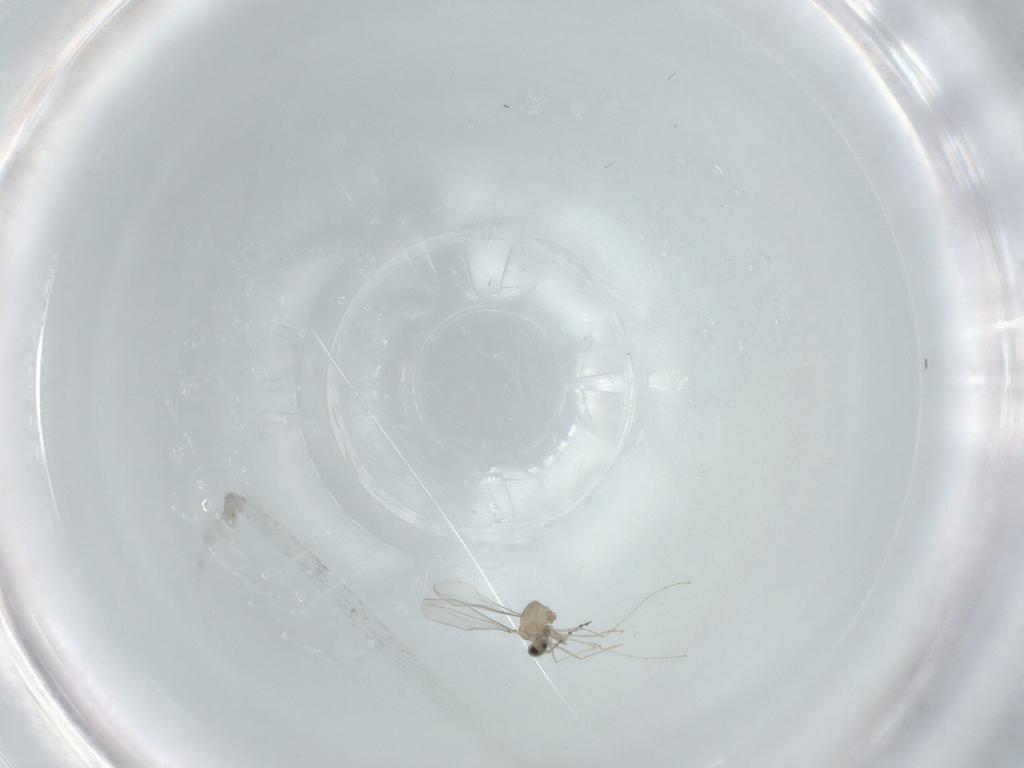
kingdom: Animalia
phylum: Arthropoda
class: Insecta
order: Diptera
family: Cecidomyiidae
